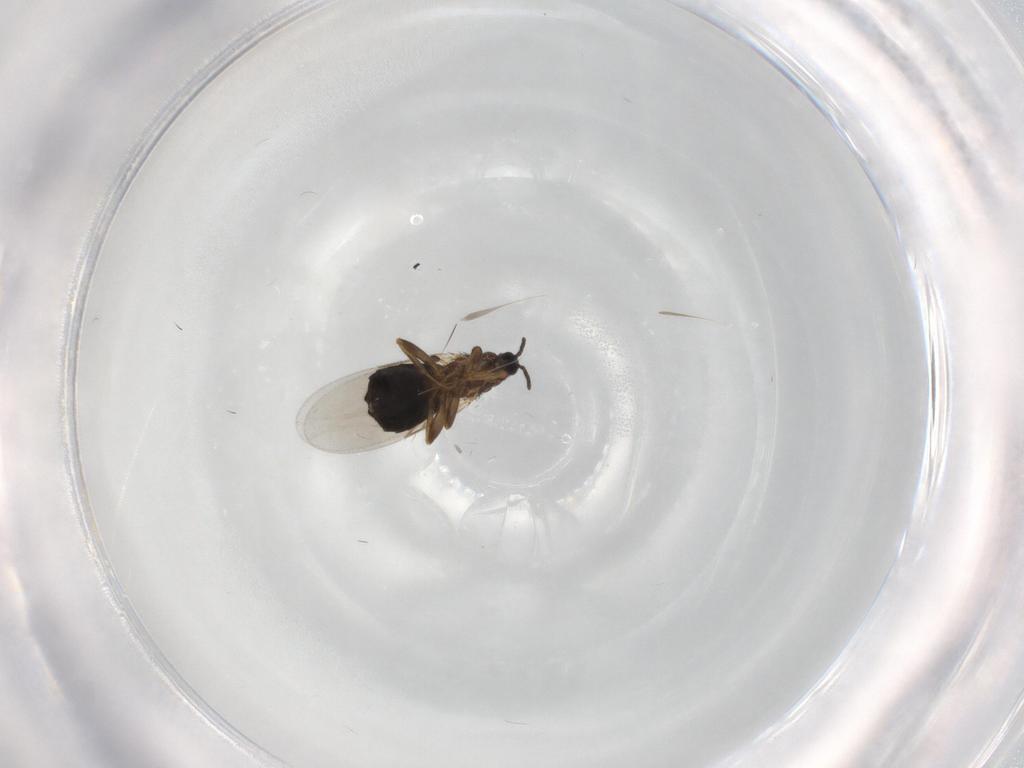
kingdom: Animalia
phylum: Arthropoda
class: Insecta
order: Diptera
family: Scatopsidae
